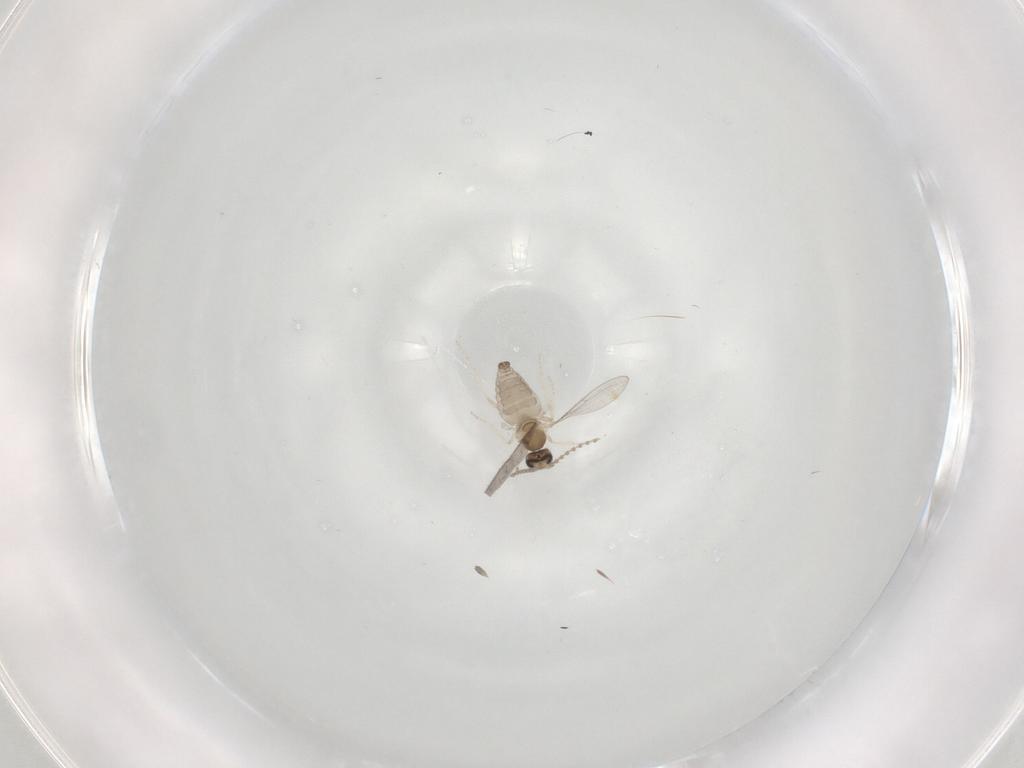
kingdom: Animalia
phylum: Arthropoda
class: Insecta
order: Diptera
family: Cecidomyiidae
